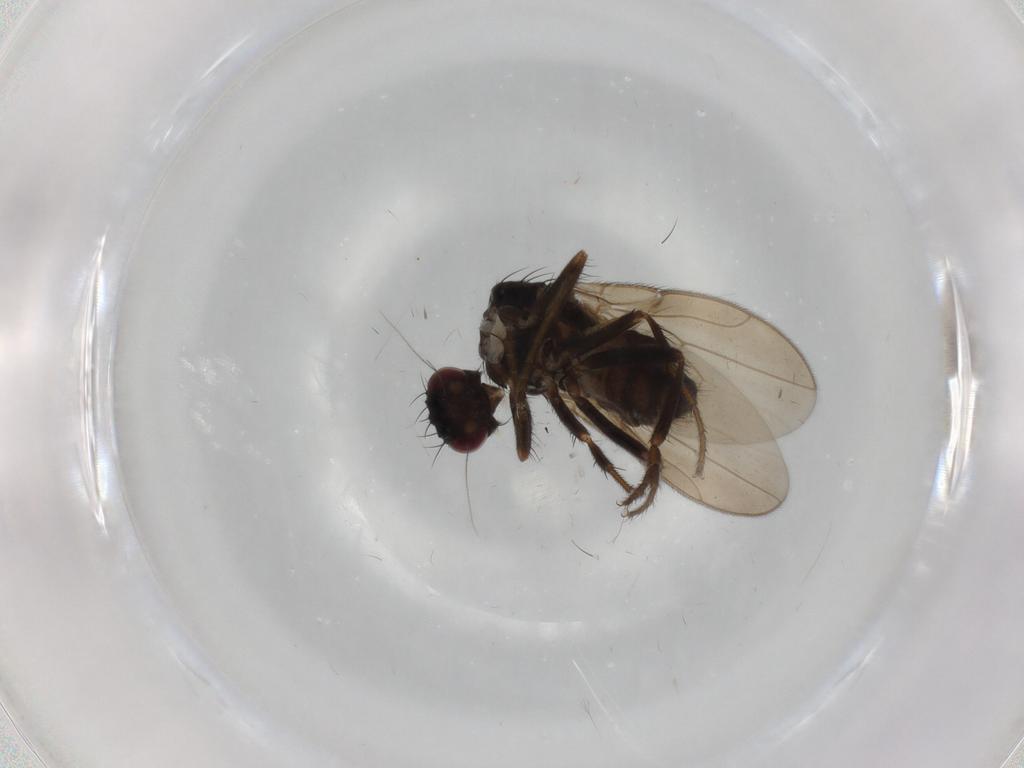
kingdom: Animalia
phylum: Arthropoda
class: Insecta
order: Diptera
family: Sphaeroceridae
